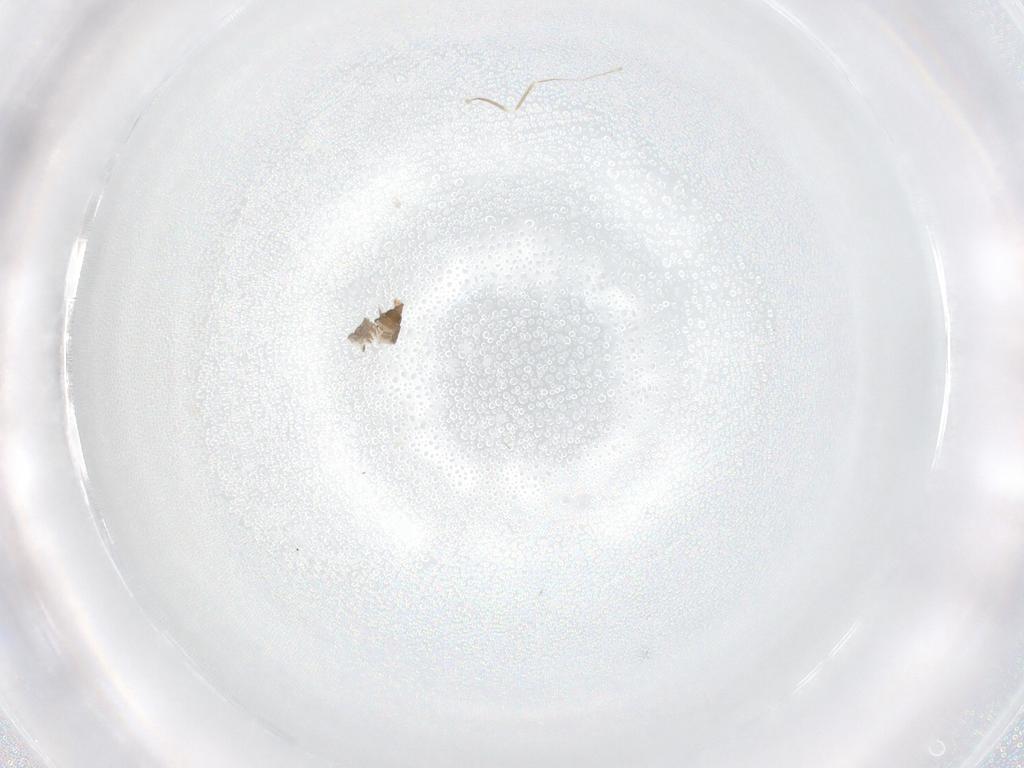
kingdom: Animalia
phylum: Arthropoda
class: Insecta
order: Diptera
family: Cecidomyiidae
